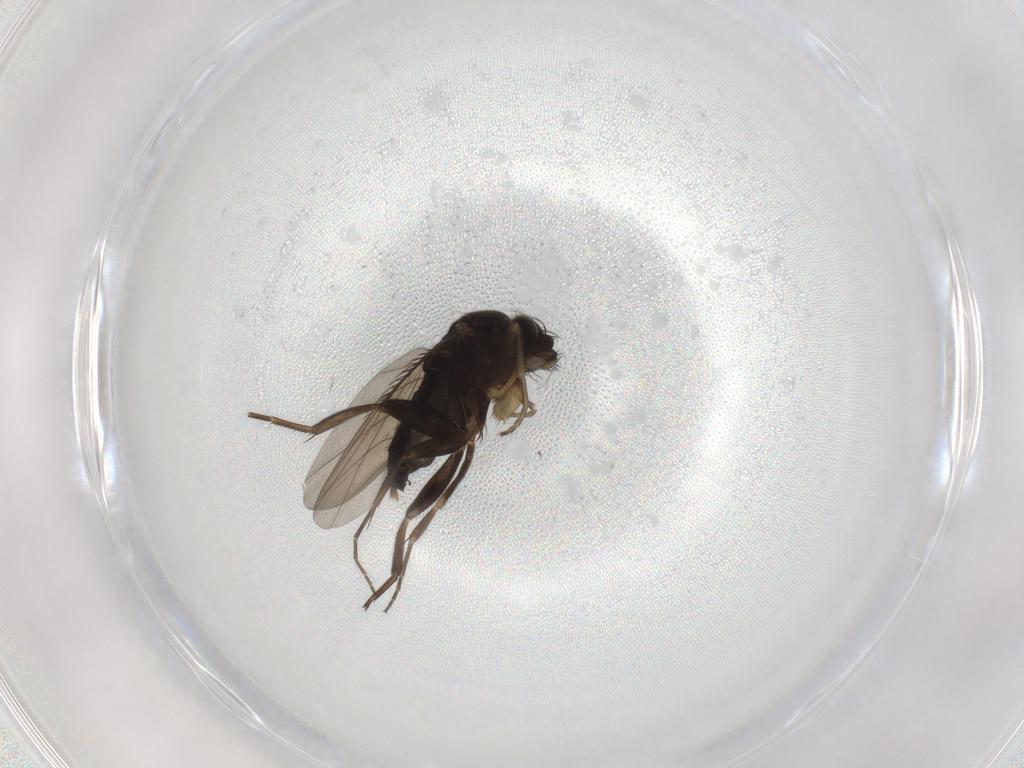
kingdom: Animalia
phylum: Arthropoda
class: Insecta
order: Diptera
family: Phoridae
